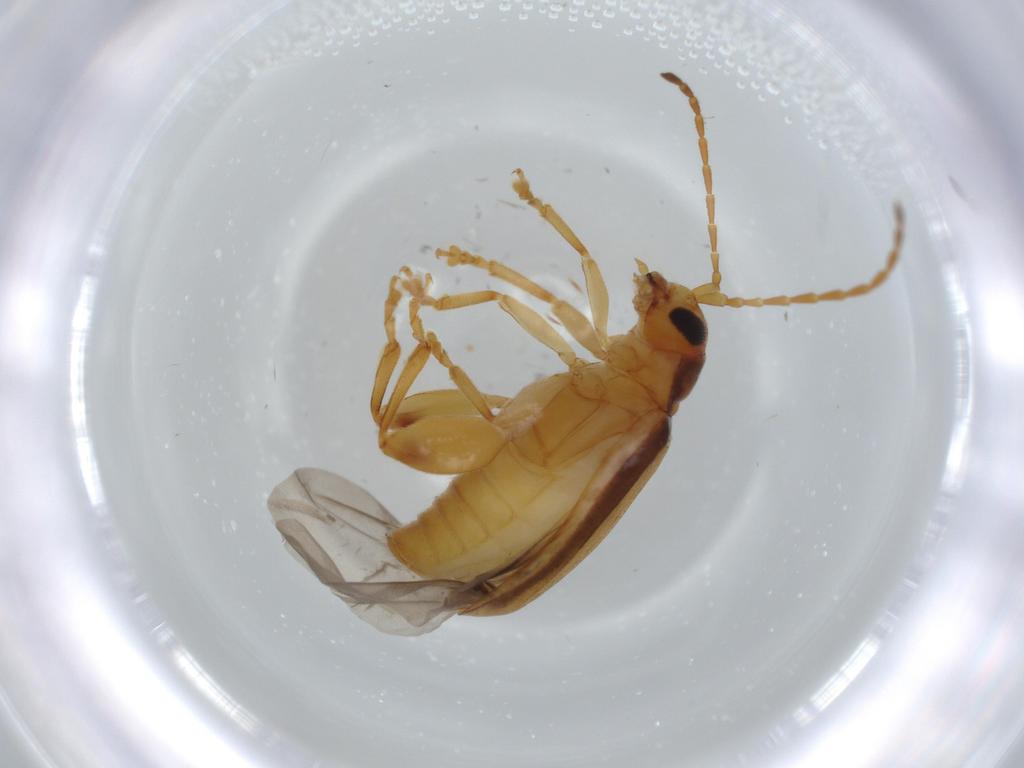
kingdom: Animalia
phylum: Arthropoda
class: Insecta
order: Coleoptera
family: Chrysomelidae
